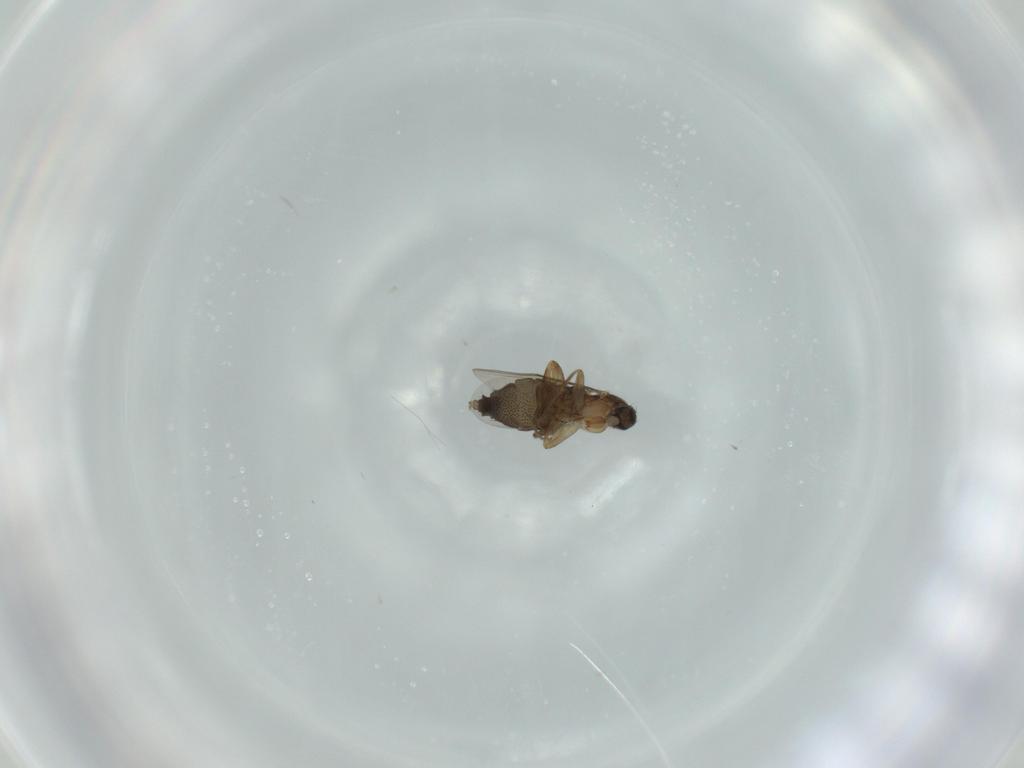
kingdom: Animalia
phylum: Arthropoda
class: Insecta
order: Diptera
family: Phoridae
